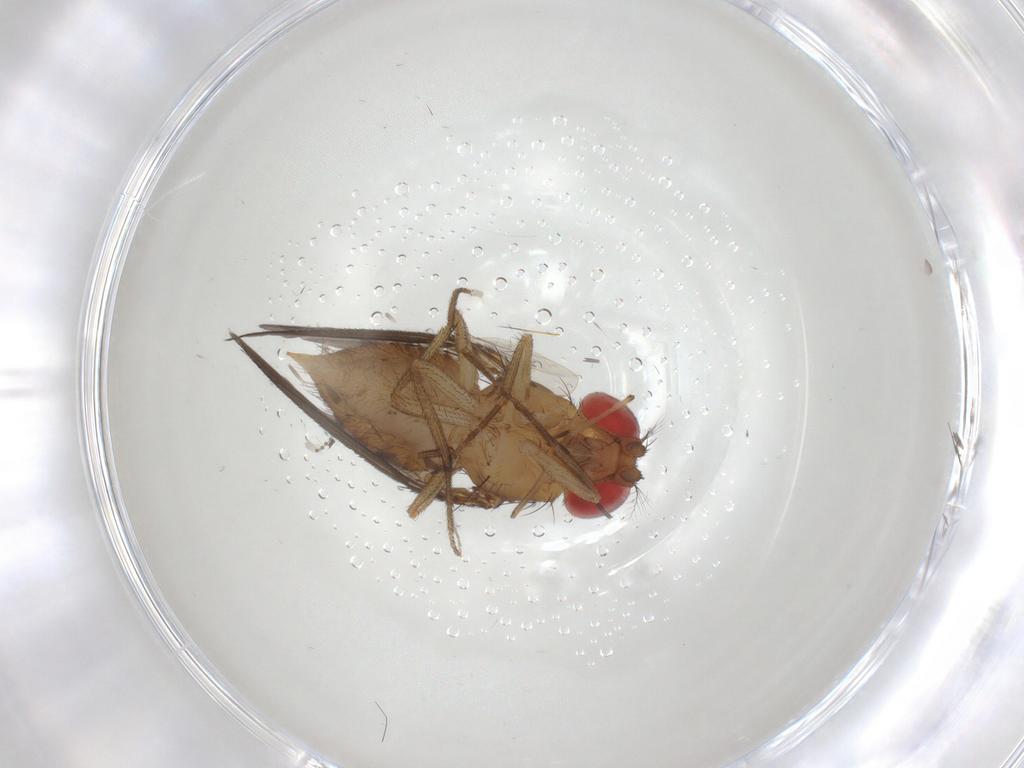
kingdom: Animalia
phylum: Arthropoda
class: Insecta
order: Diptera
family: Drosophilidae
